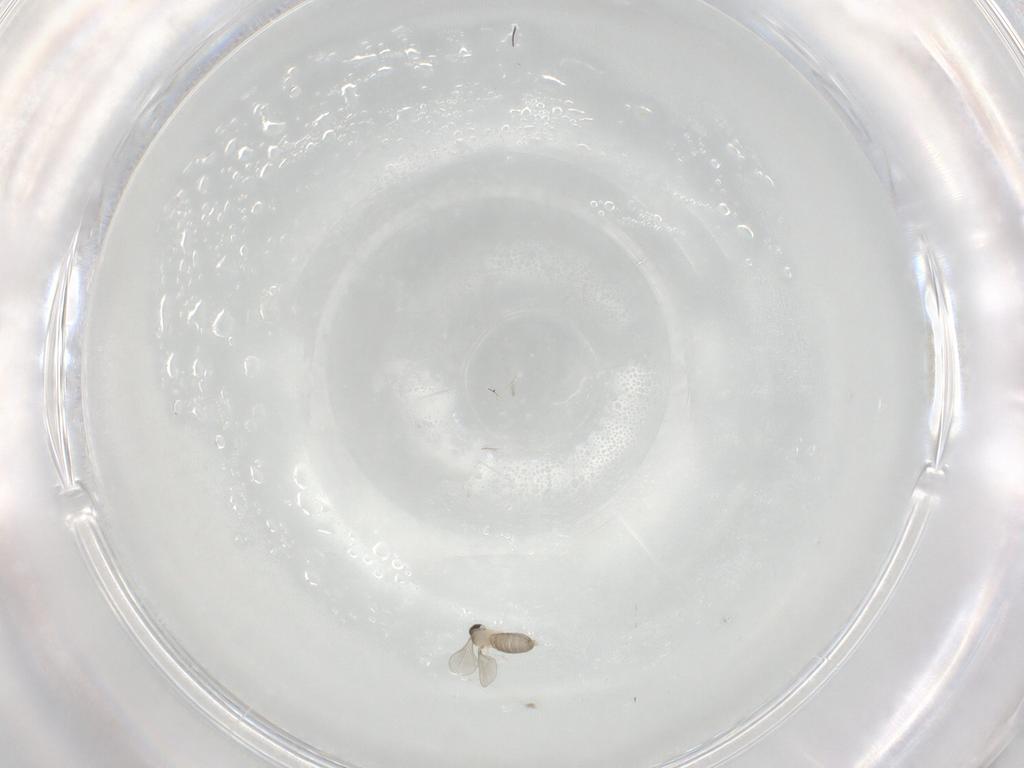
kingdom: Animalia
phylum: Arthropoda
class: Insecta
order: Diptera
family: Cecidomyiidae
